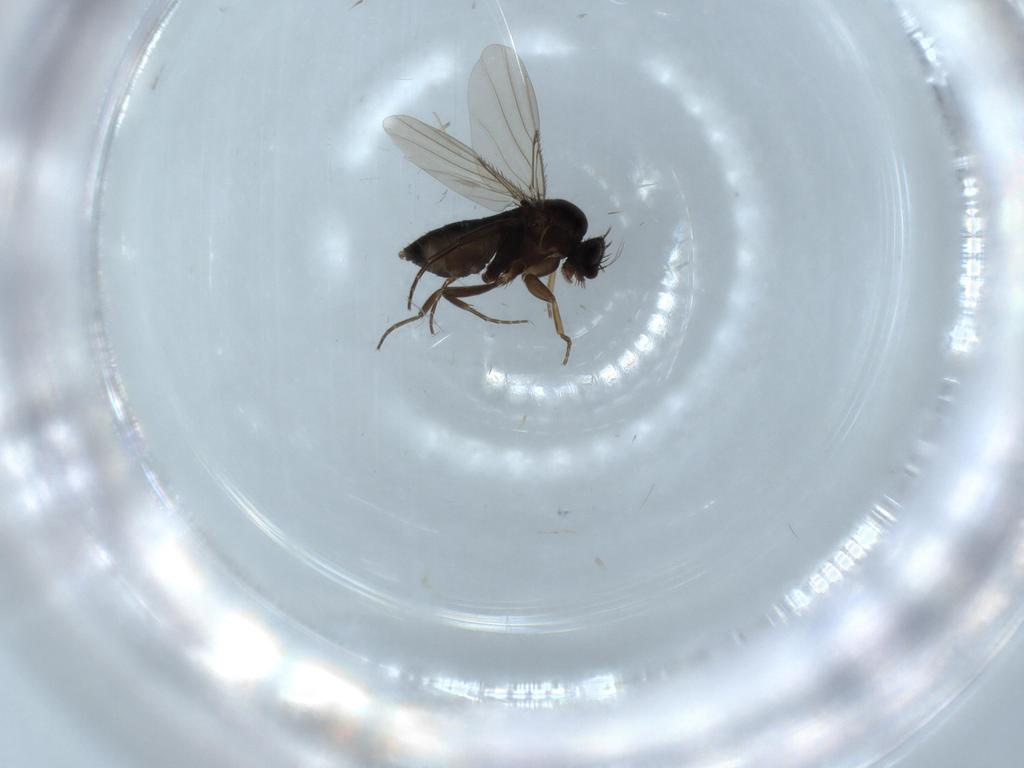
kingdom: Animalia
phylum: Arthropoda
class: Insecta
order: Diptera
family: Phoridae
